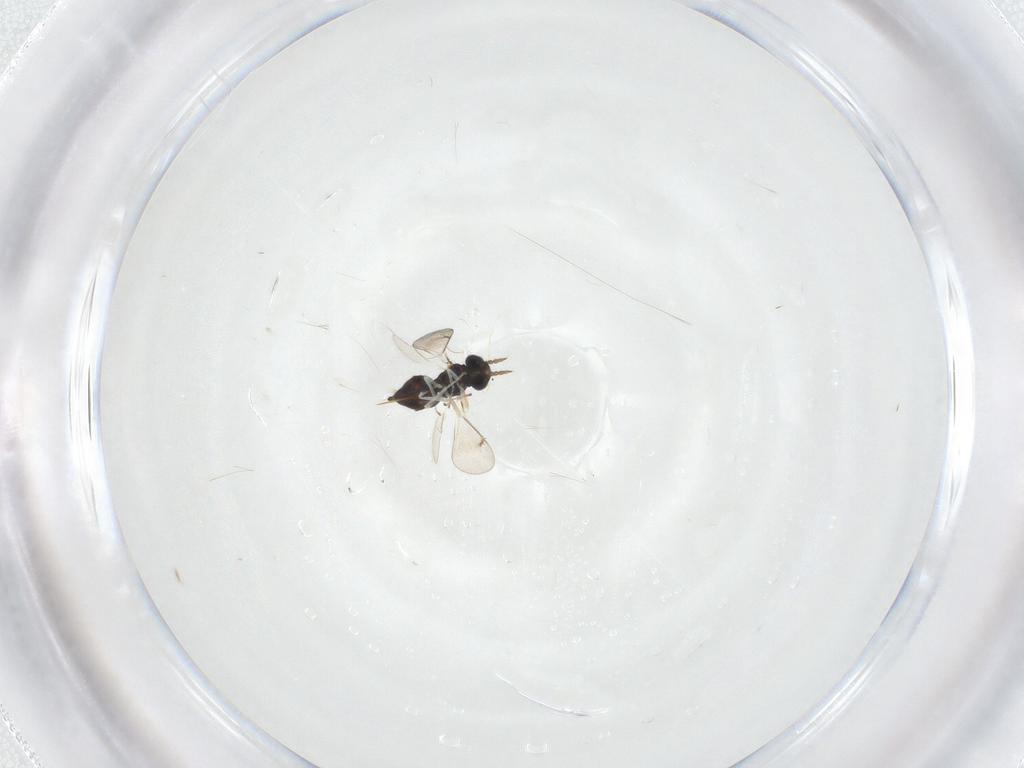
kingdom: Animalia
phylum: Arthropoda
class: Insecta
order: Hymenoptera
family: Eulophidae
